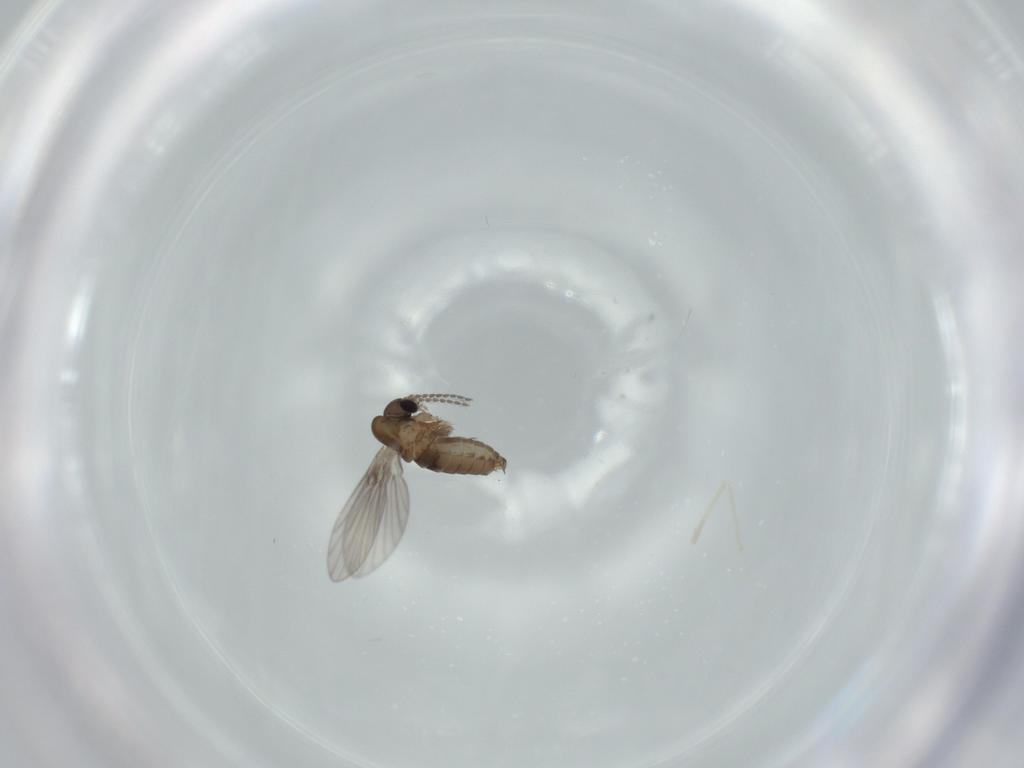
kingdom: Animalia
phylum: Arthropoda
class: Insecta
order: Diptera
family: Psychodidae
